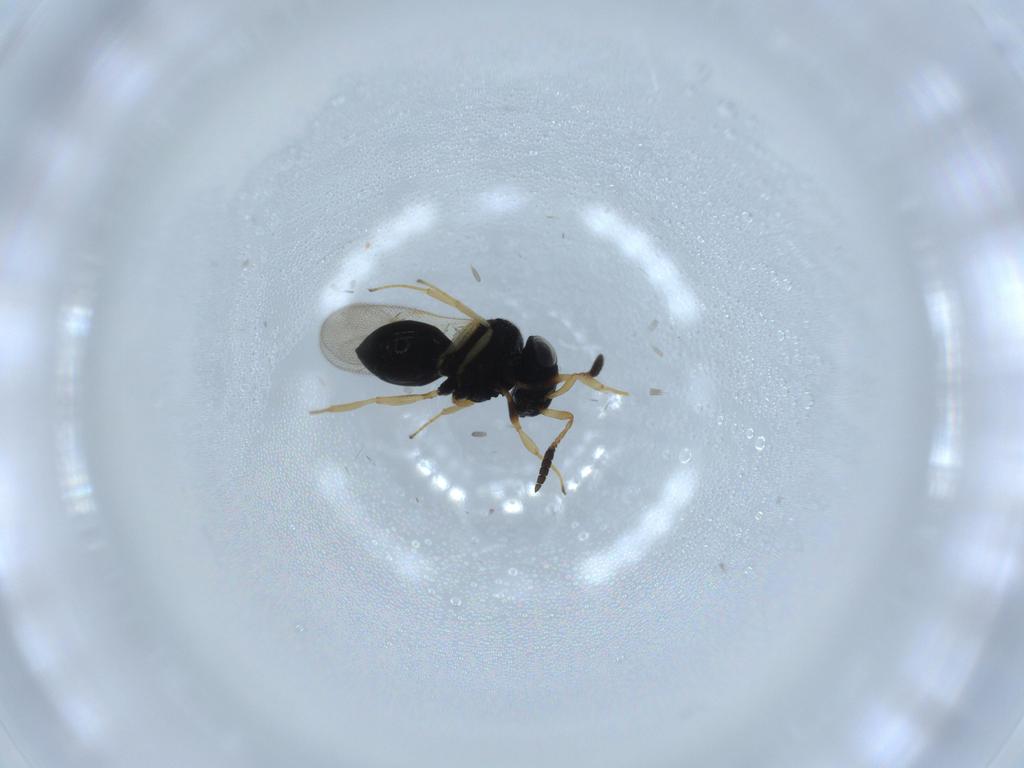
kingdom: Animalia
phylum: Arthropoda
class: Insecta
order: Hymenoptera
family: Scelionidae
